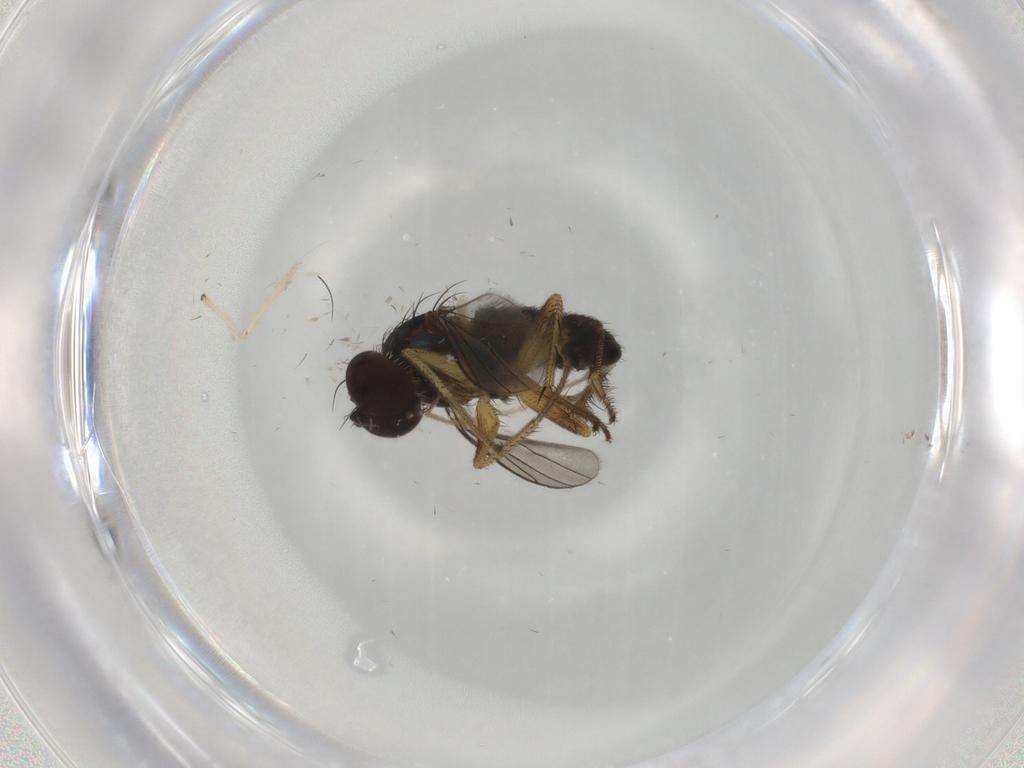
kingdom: Animalia
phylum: Arthropoda
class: Insecta
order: Diptera
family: Dolichopodidae
